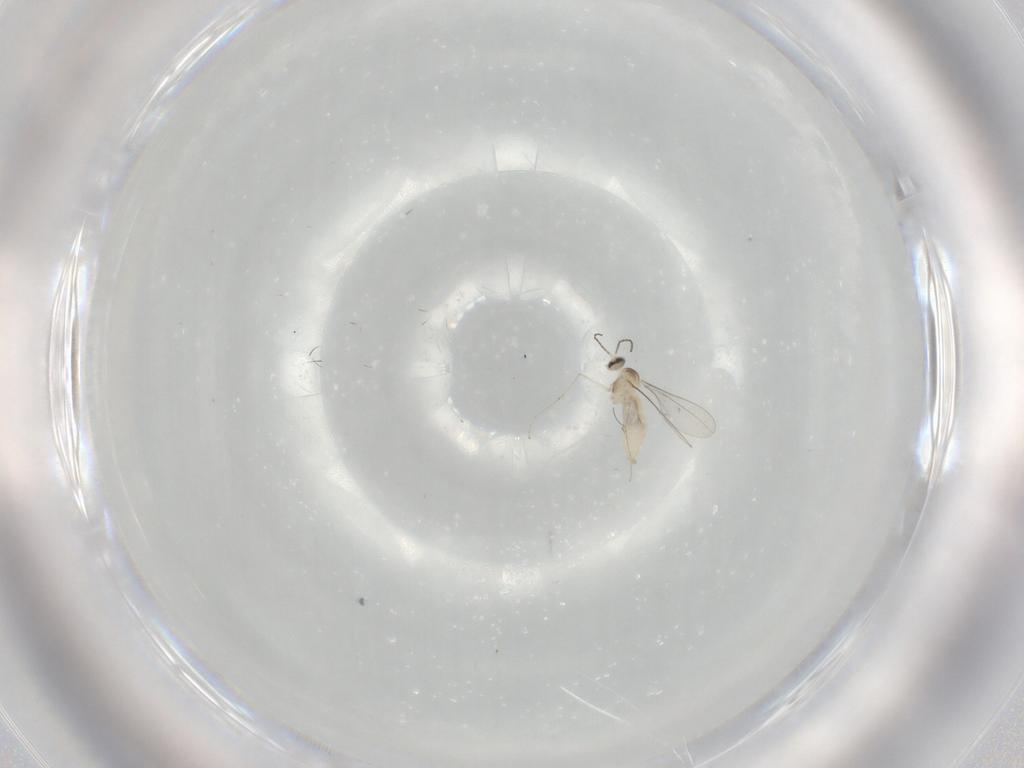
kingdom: Animalia
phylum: Arthropoda
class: Insecta
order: Diptera
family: Cecidomyiidae
